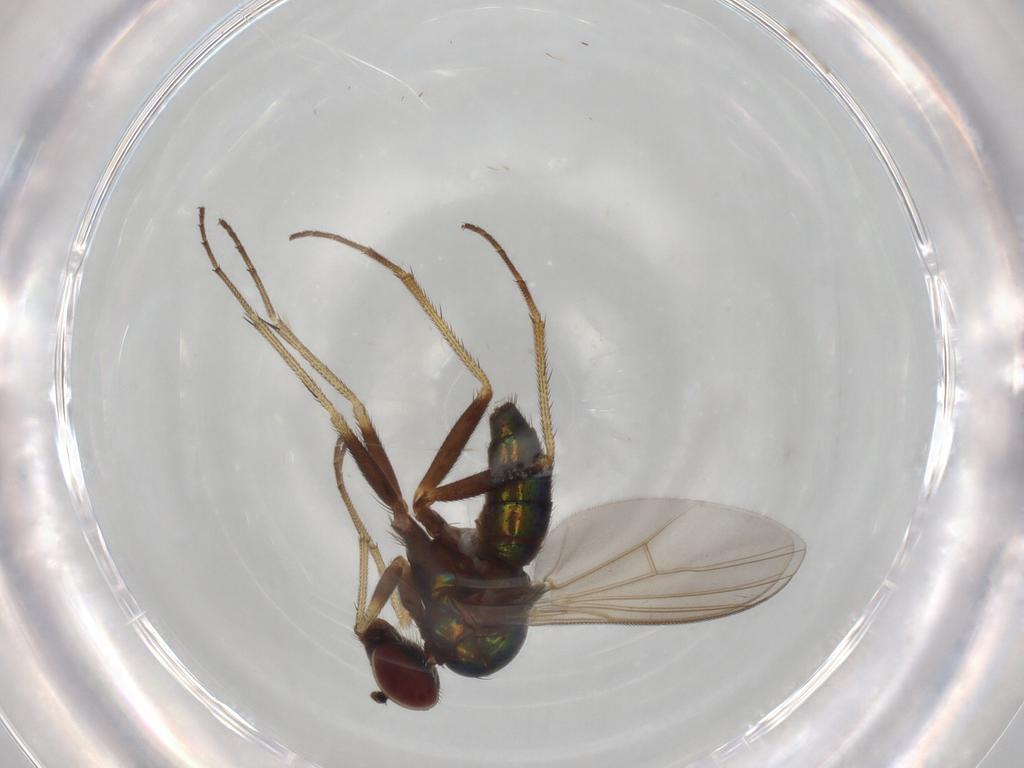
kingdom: Animalia
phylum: Arthropoda
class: Insecta
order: Diptera
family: Dolichopodidae
